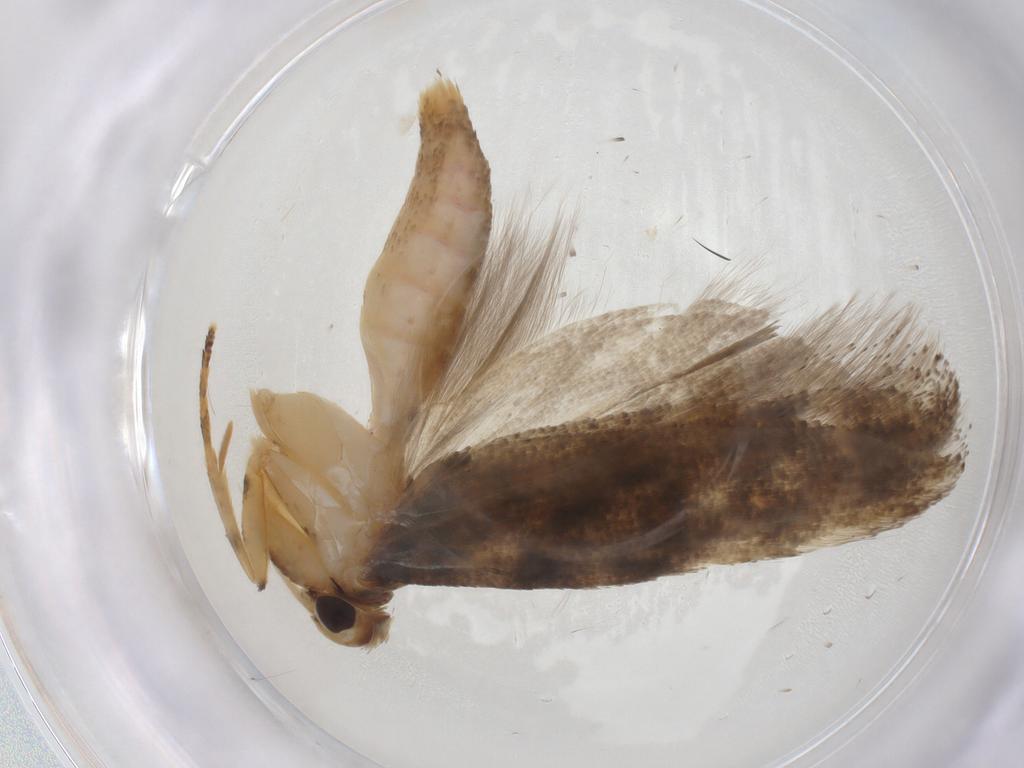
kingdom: Animalia
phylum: Arthropoda
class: Insecta
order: Lepidoptera
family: Gelechiidae
